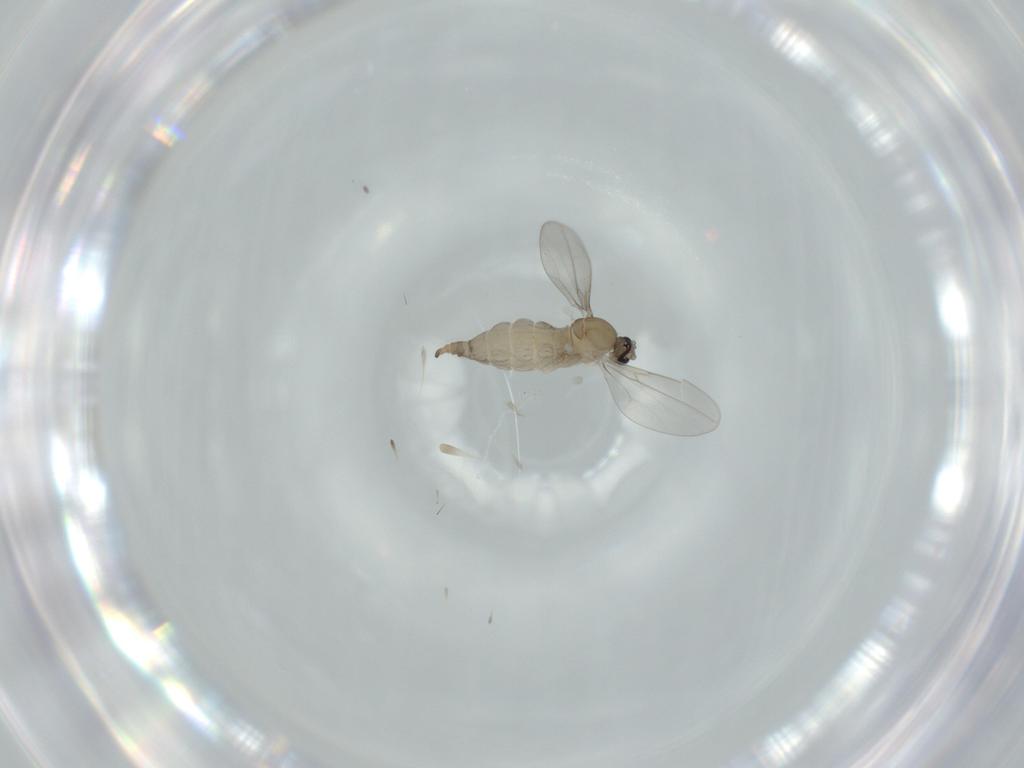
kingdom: Animalia
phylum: Arthropoda
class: Insecta
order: Diptera
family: Cecidomyiidae
